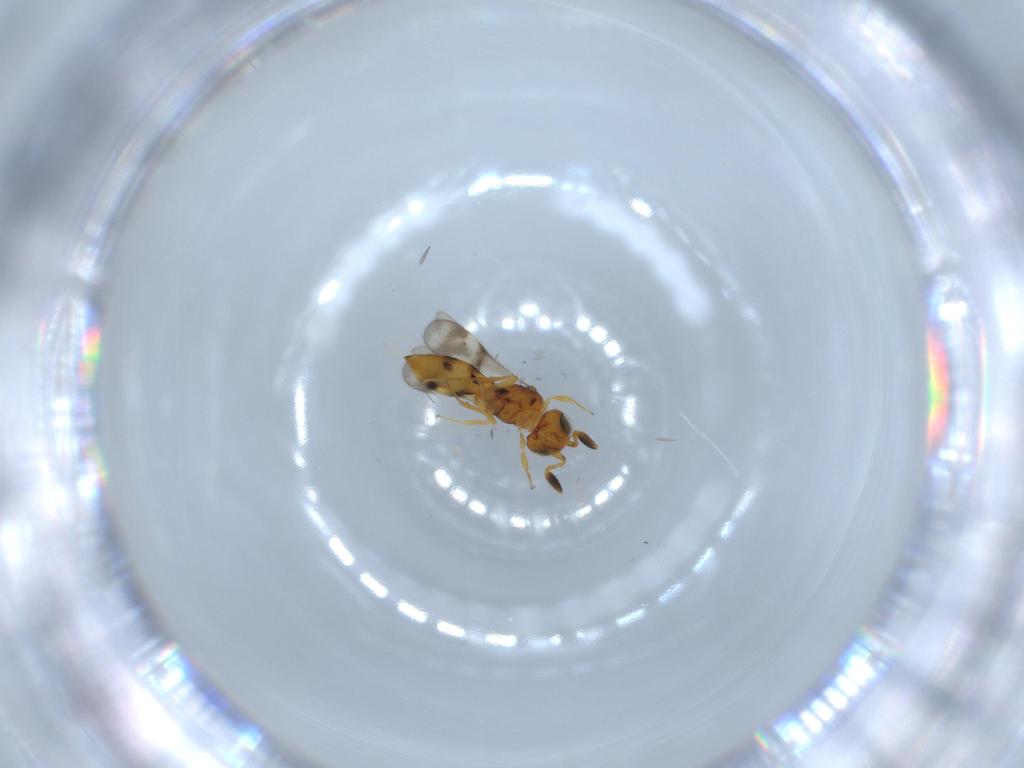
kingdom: Animalia
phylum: Arthropoda
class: Insecta
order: Hymenoptera
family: Scelionidae
